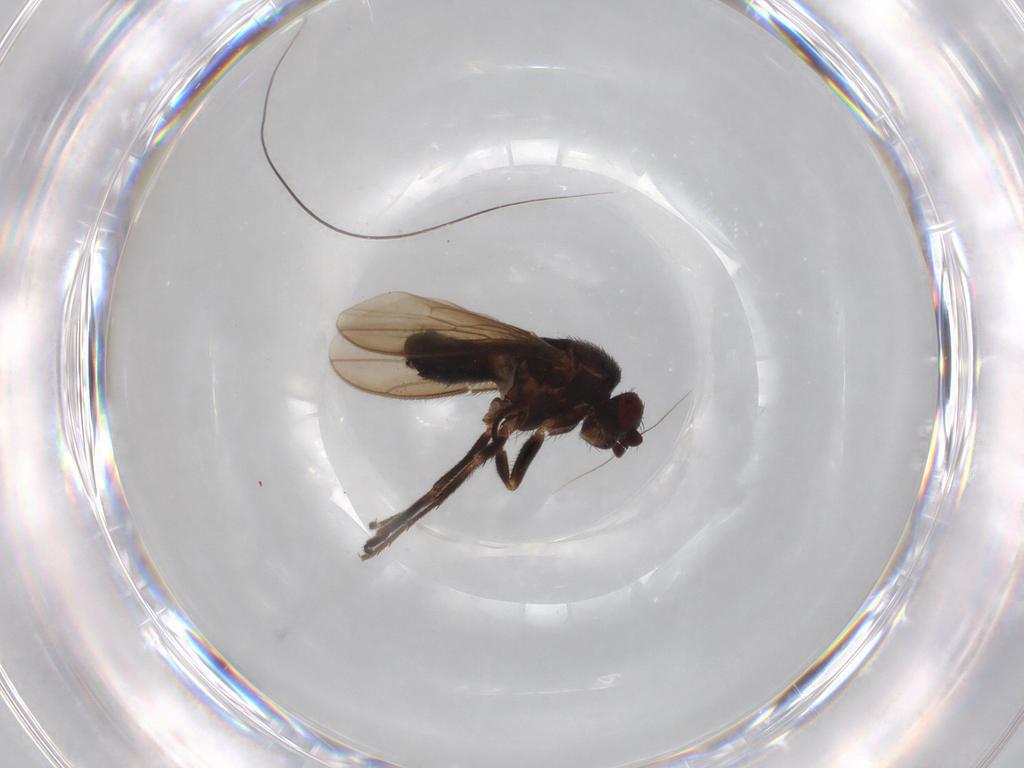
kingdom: Animalia
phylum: Arthropoda
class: Insecta
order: Diptera
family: Sphaeroceridae
